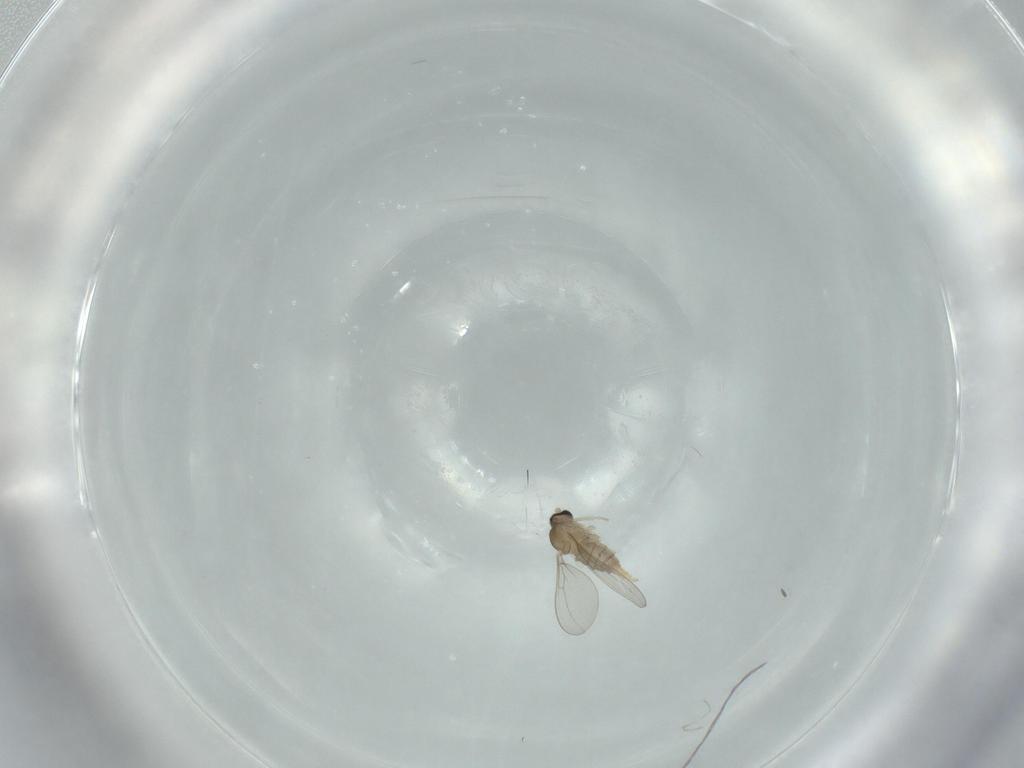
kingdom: Animalia
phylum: Arthropoda
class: Insecta
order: Diptera
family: Cecidomyiidae
